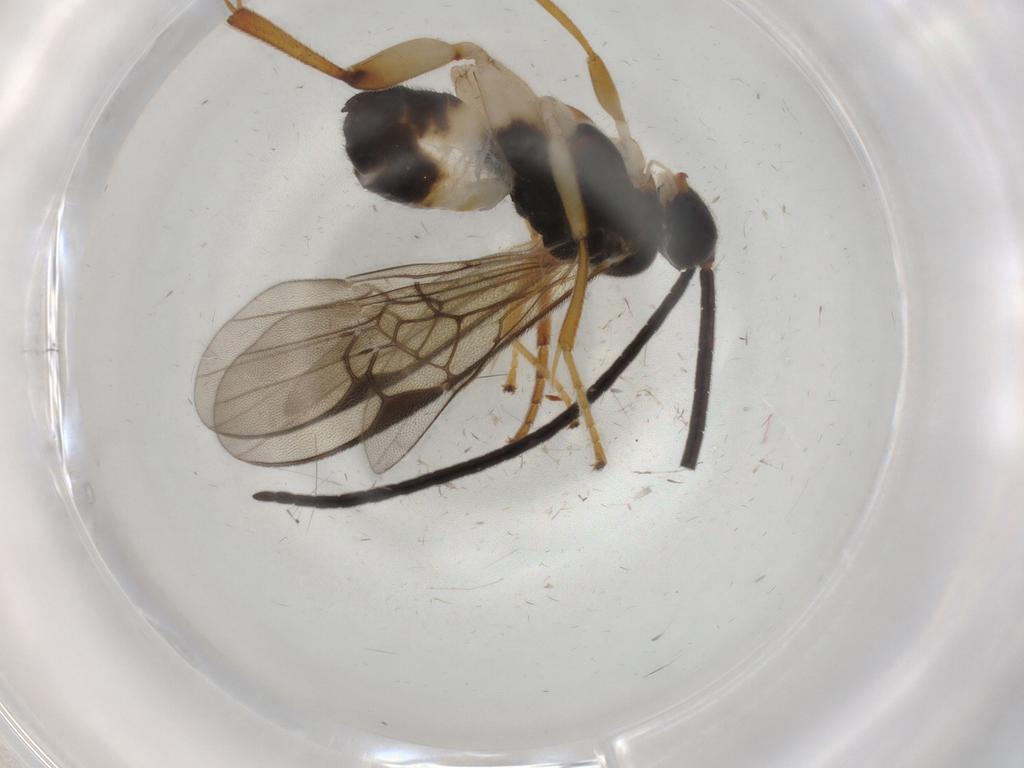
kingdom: Animalia
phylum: Arthropoda
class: Insecta
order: Hymenoptera
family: Braconidae
